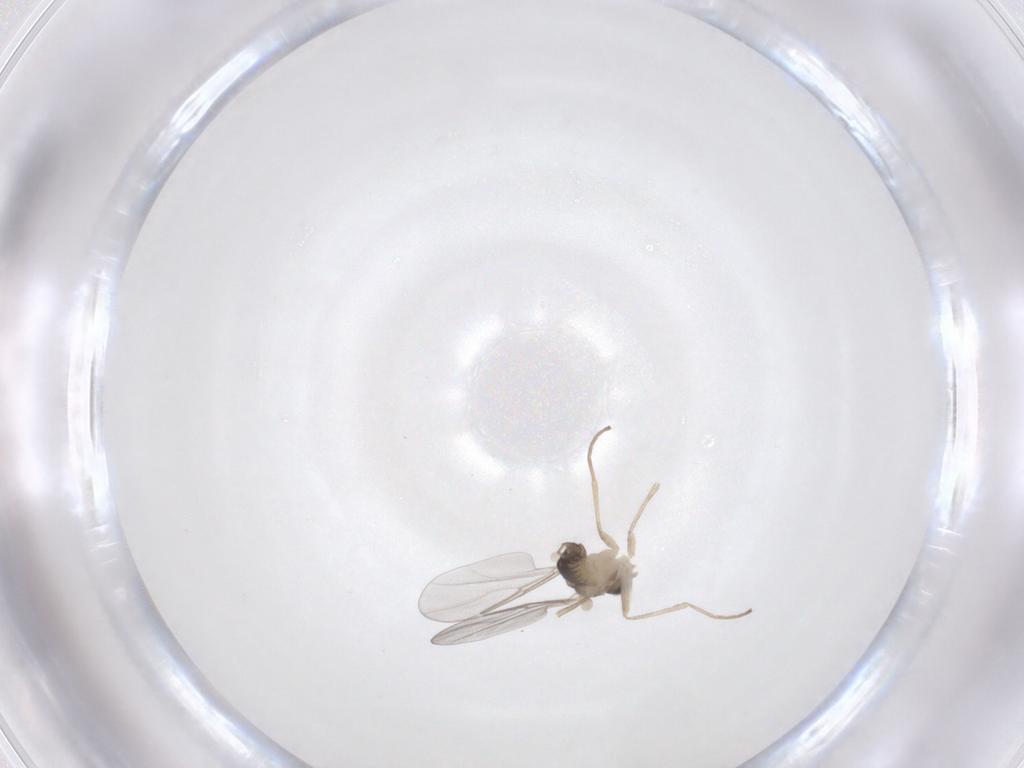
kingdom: Animalia
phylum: Arthropoda
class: Insecta
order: Diptera
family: Cecidomyiidae
